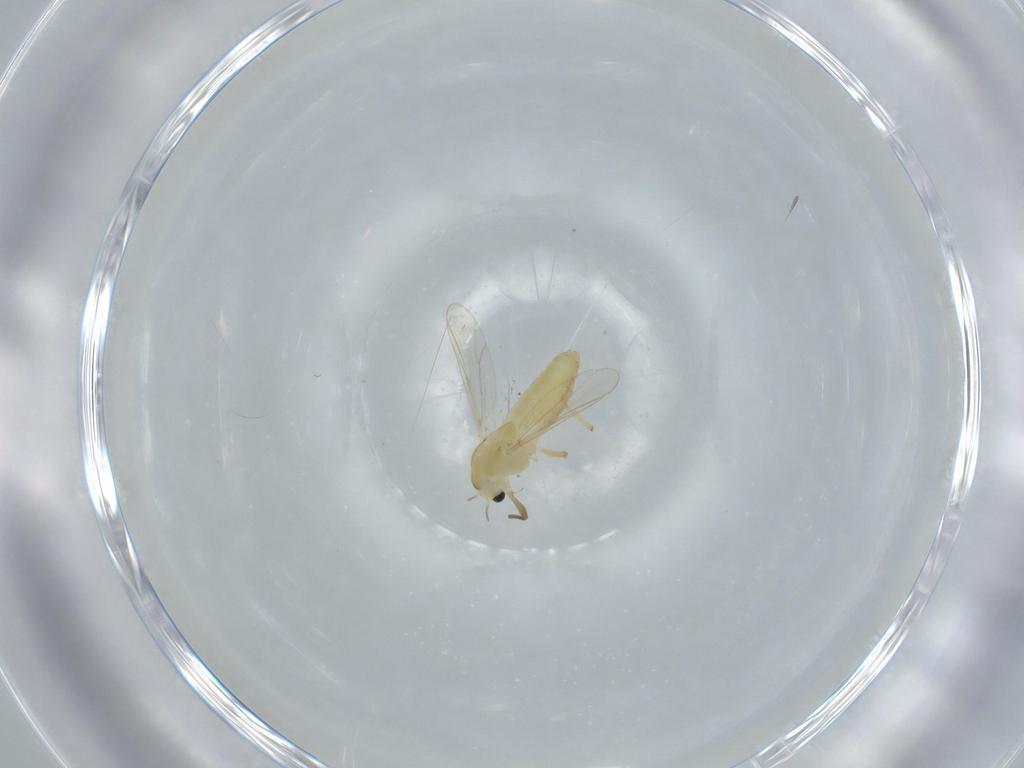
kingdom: Animalia
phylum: Arthropoda
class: Insecta
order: Diptera
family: Chironomidae
